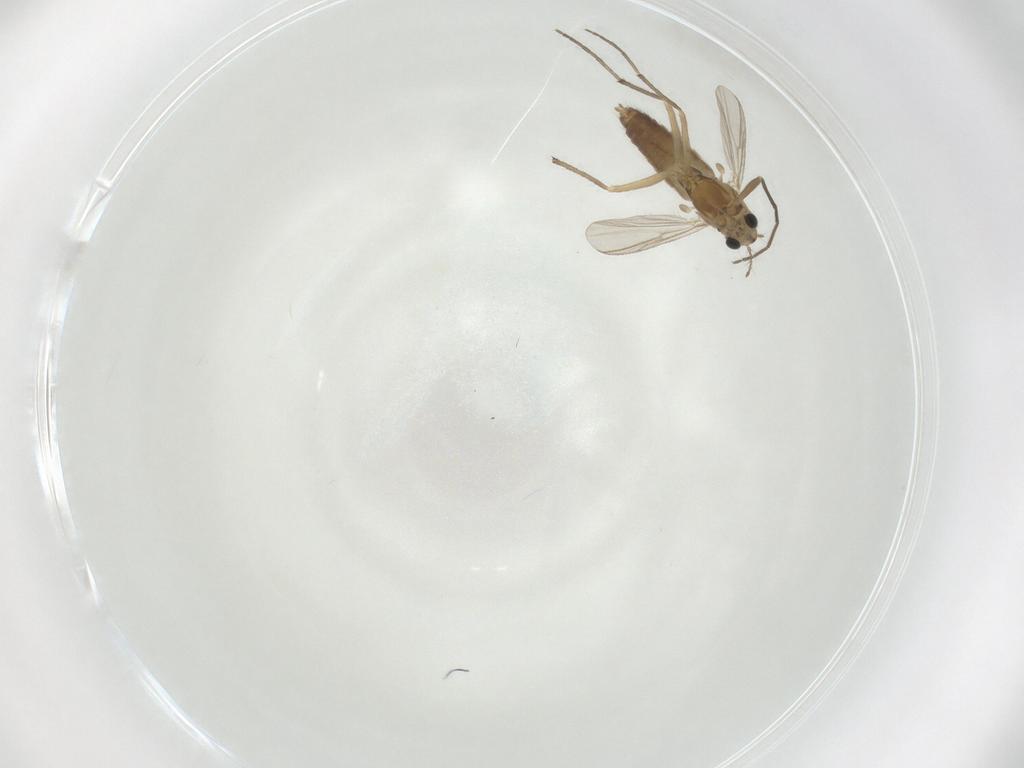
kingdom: Animalia
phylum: Arthropoda
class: Insecta
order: Diptera
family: Chironomidae
